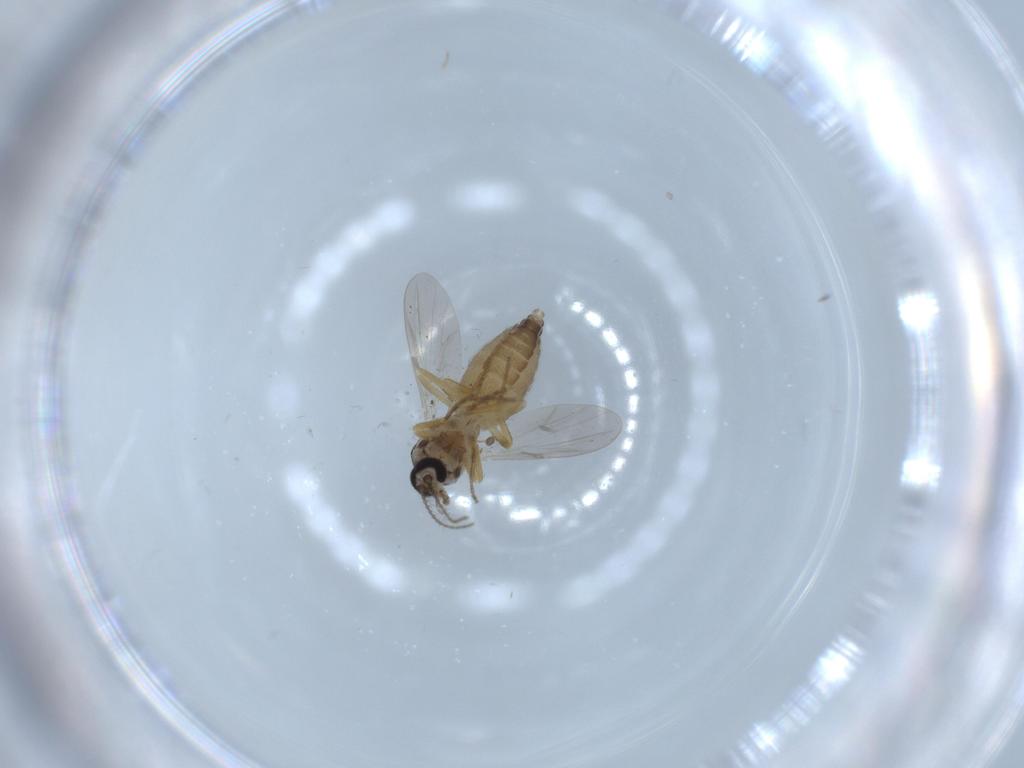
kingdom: Animalia
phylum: Arthropoda
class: Insecta
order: Diptera
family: Ceratopogonidae
